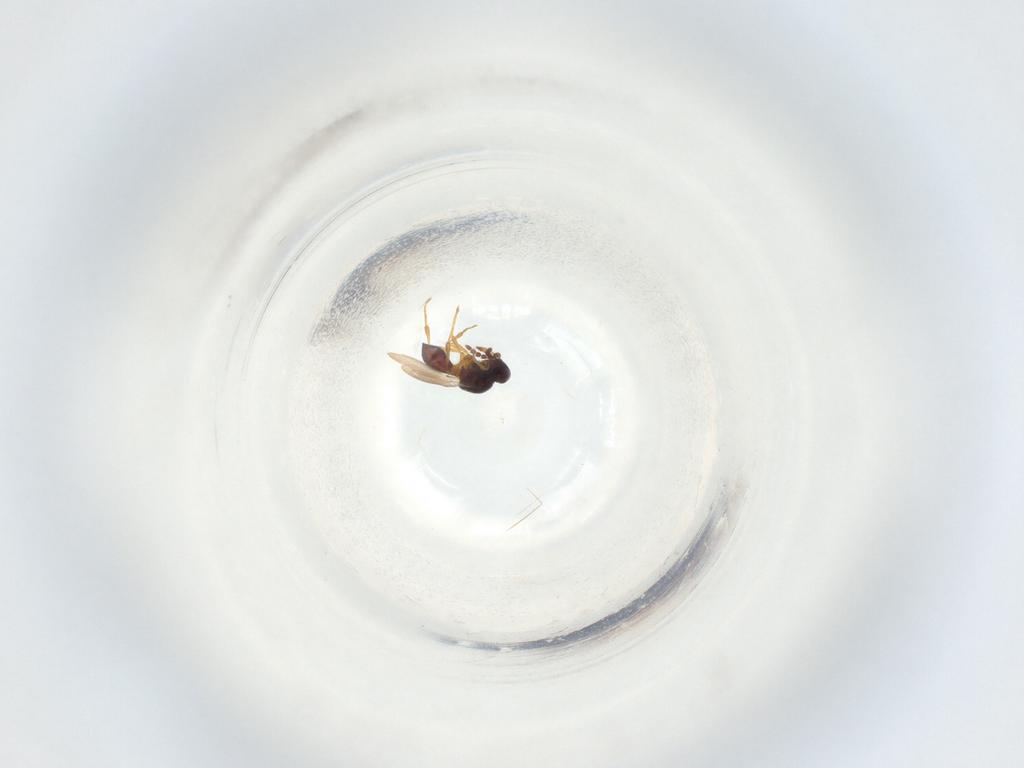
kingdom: Animalia
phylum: Arthropoda
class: Insecta
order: Hymenoptera
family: Platygastridae
